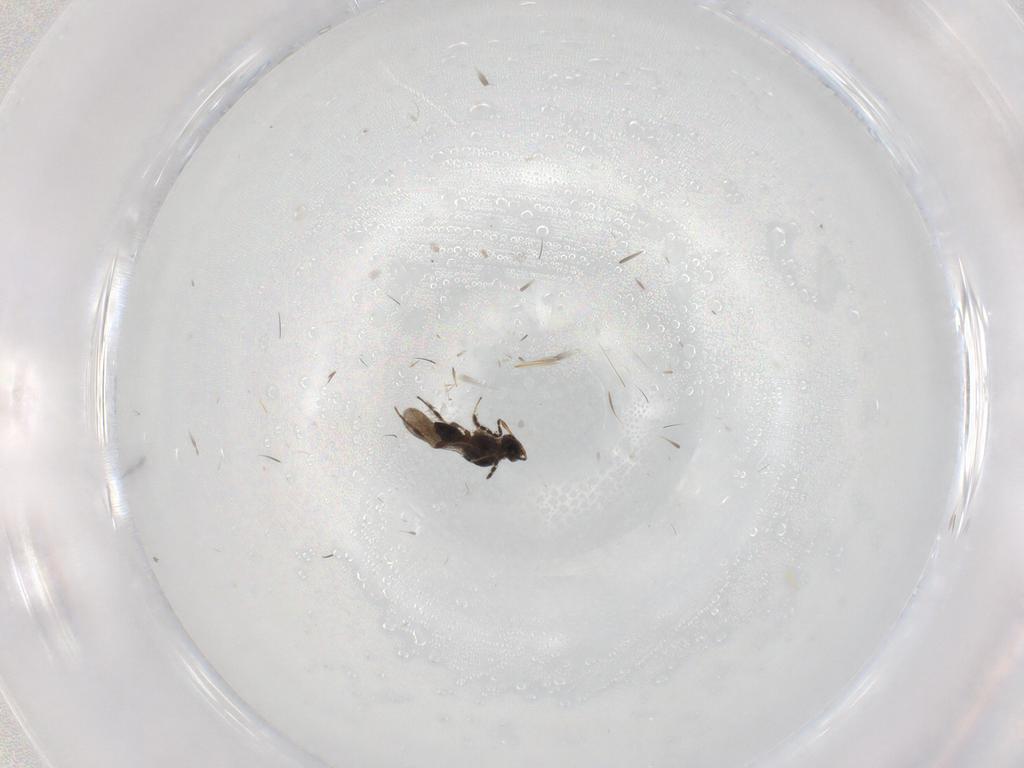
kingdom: Animalia
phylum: Arthropoda
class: Insecta
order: Hymenoptera
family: Platygastridae
